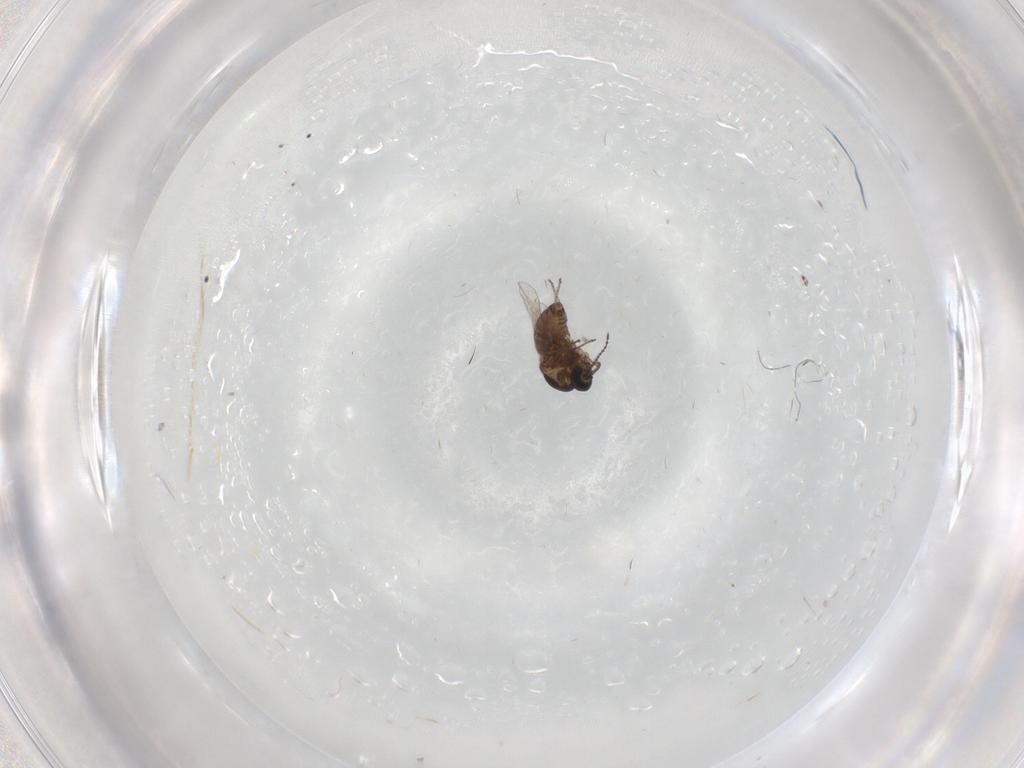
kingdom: Animalia
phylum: Arthropoda
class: Insecta
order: Diptera
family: Ceratopogonidae
